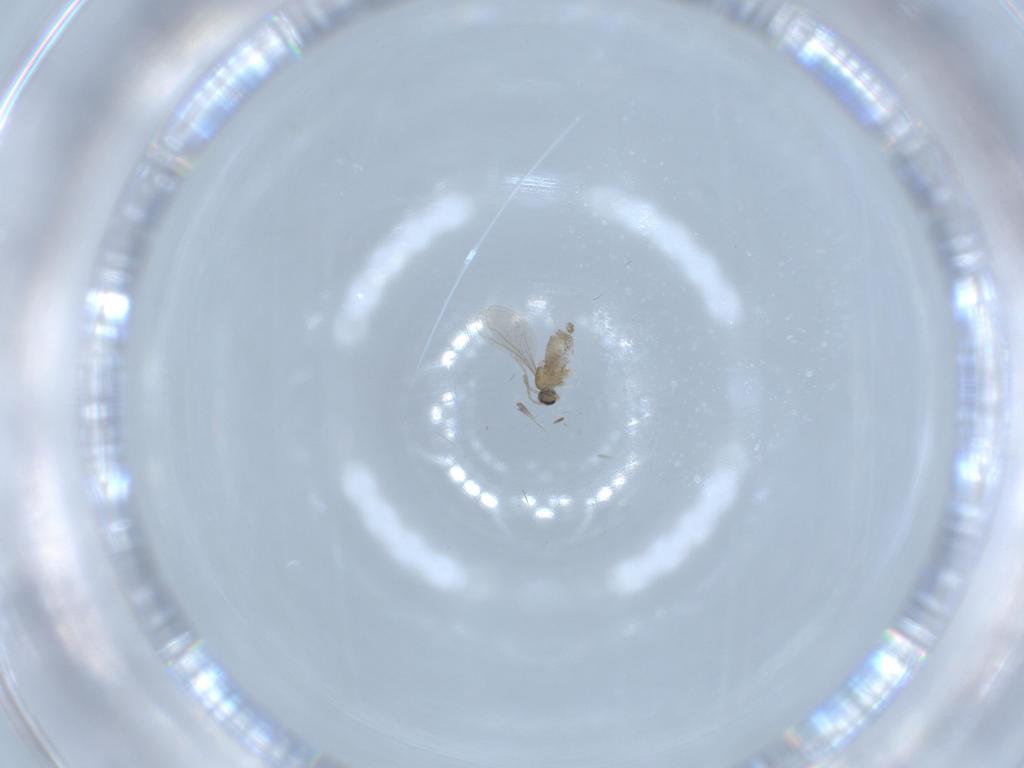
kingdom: Animalia
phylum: Arthropoda
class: Insecta
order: Diptera
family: Cecidomyiidae
